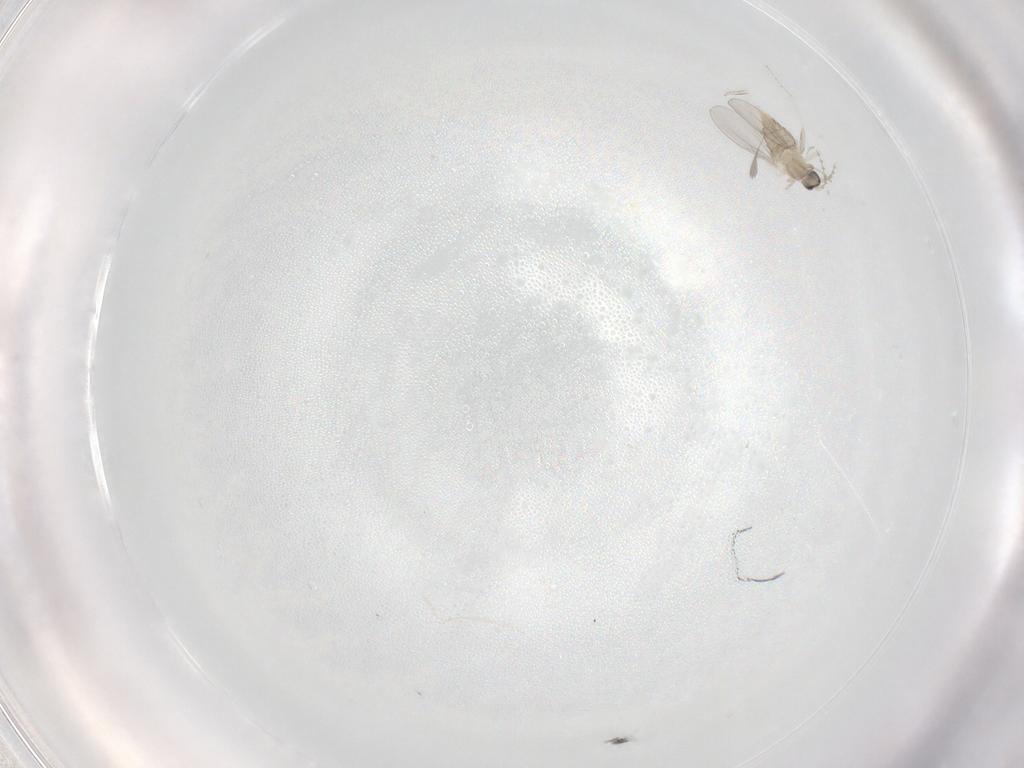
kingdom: Animalia
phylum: Arthropoda
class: Insecta
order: Diptera
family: Cecidomyiidae
